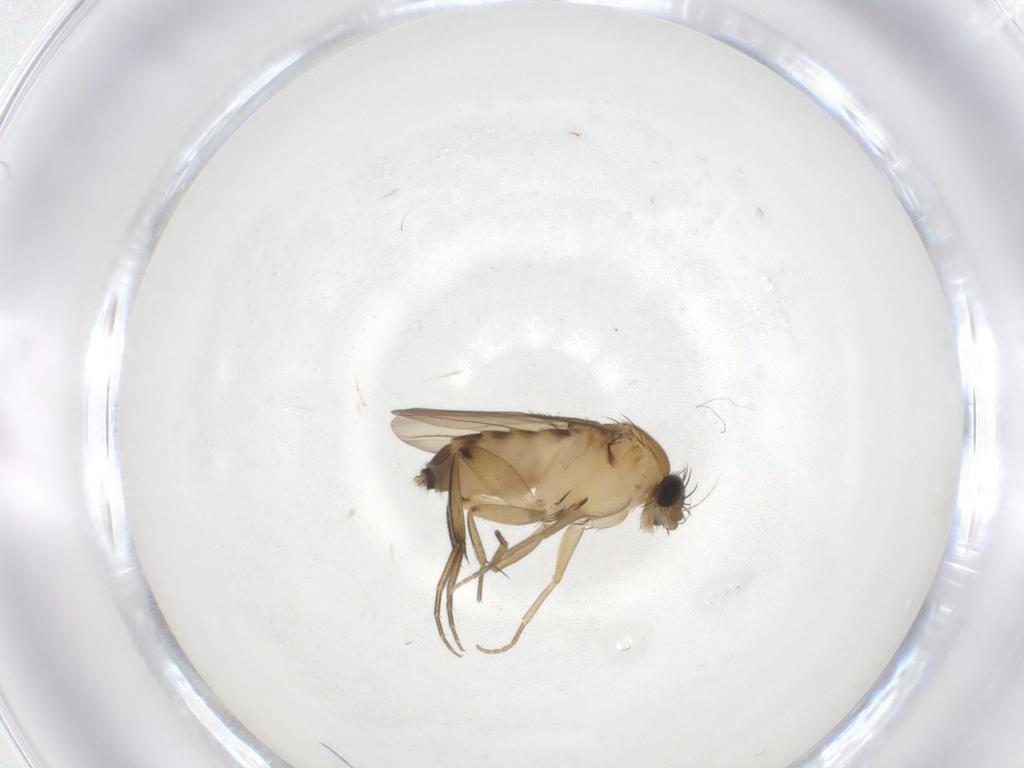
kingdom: Animalia
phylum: Arthropoda
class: Insecta
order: Diptera
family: Phoridae
